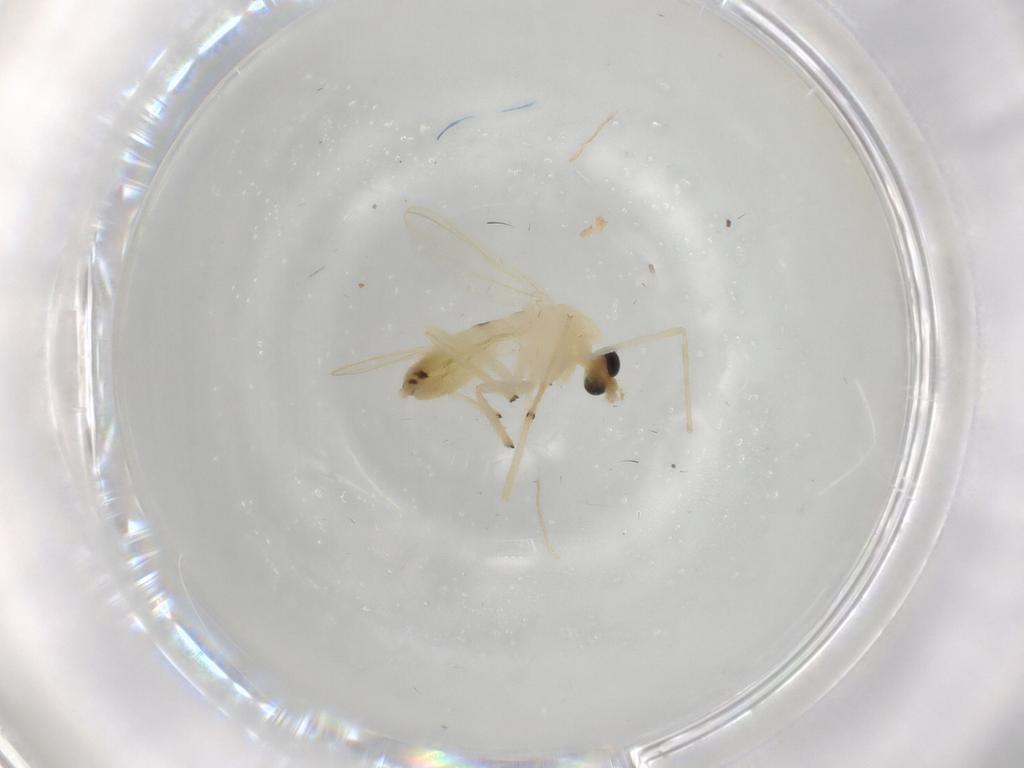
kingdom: Animalia
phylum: Arthropoda
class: Insecta
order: Diptera
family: Chironomidae
